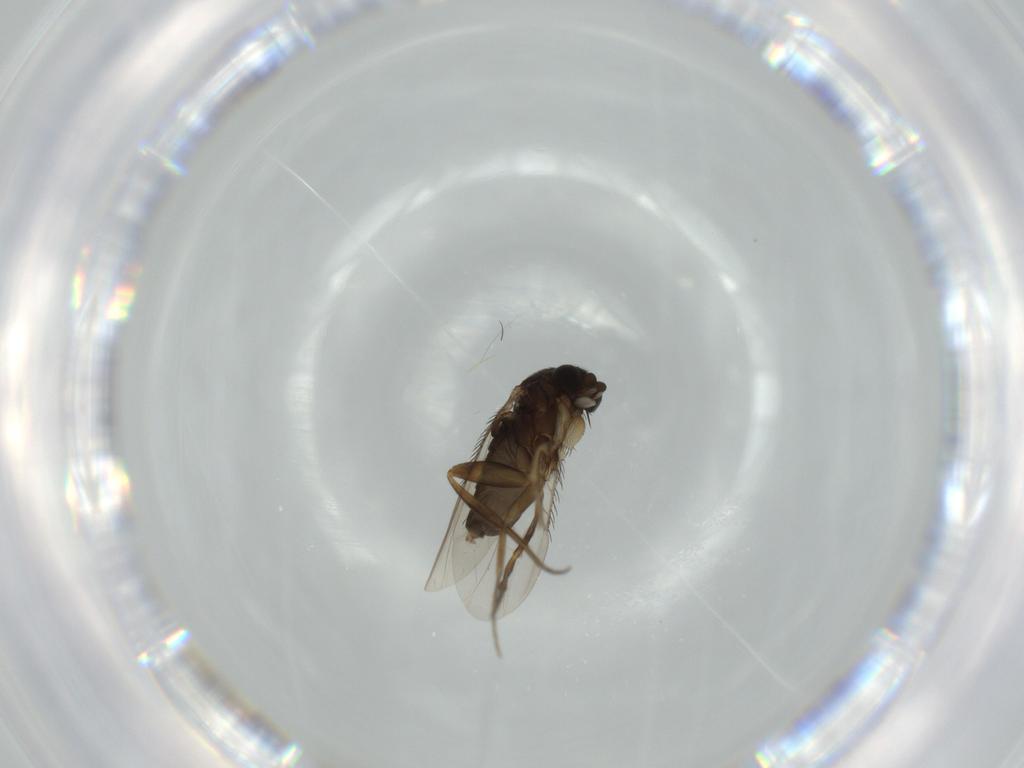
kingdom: Animalia
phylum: Arthropoda
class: Insecta
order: Diptera
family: Phoridae
